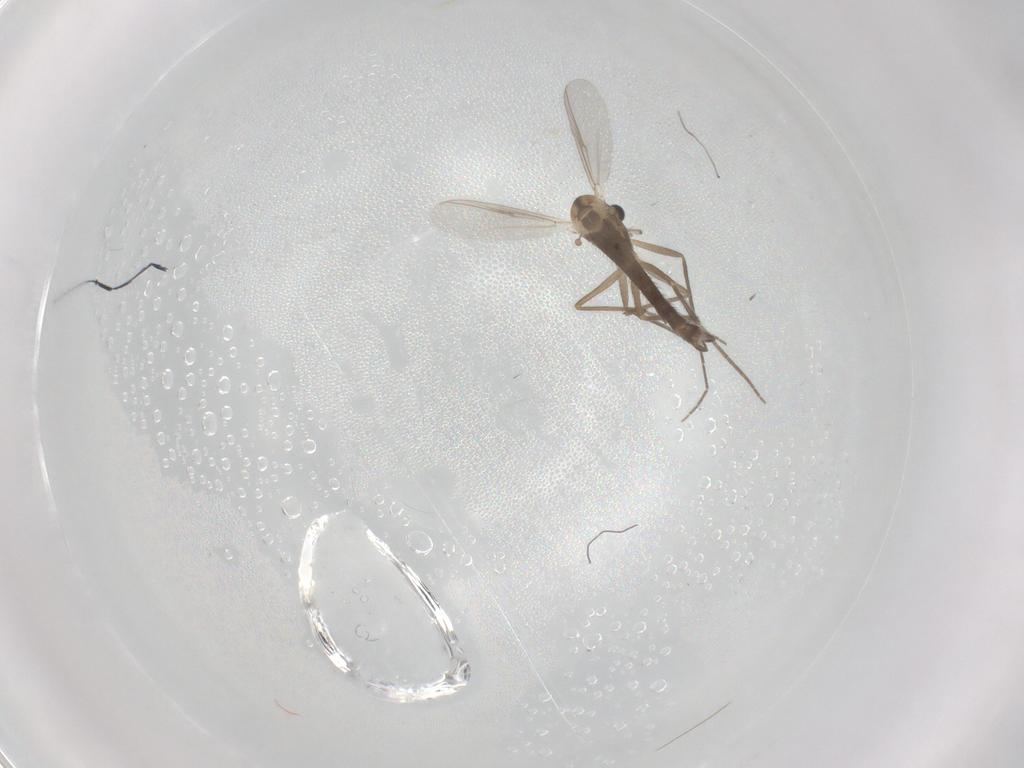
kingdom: Animalia
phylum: Arthropoda
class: Insecta
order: Diptera
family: Chironomidae
